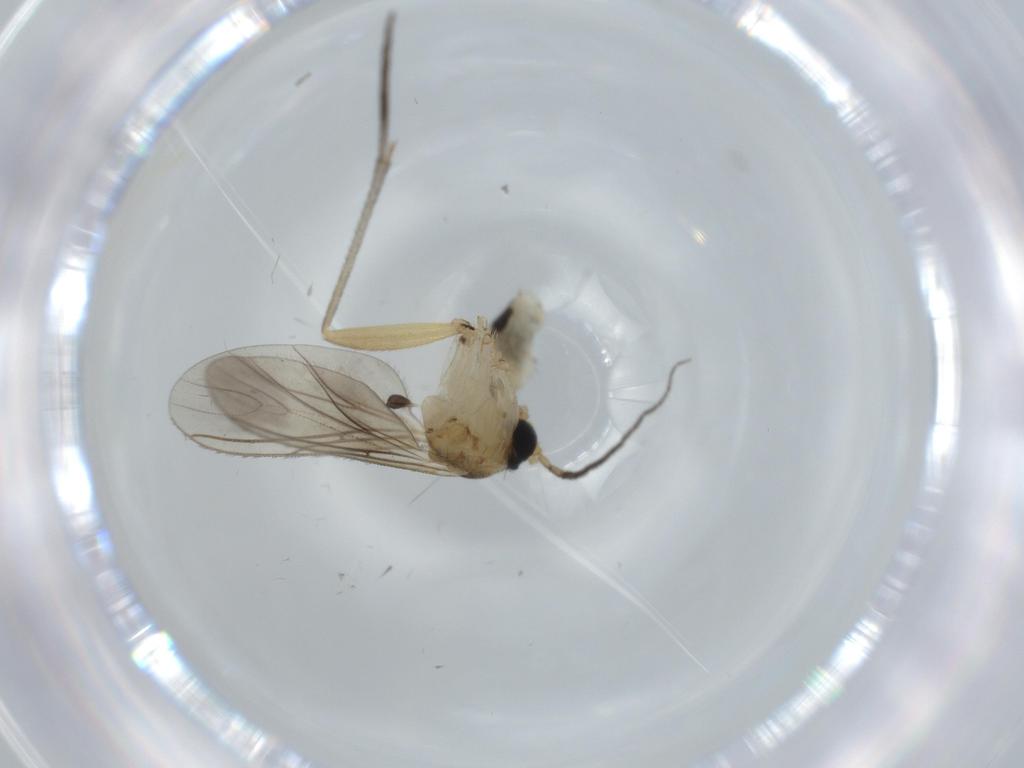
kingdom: Animalia
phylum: Arthropoda
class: Insecta
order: Diptera
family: Sciaridae
